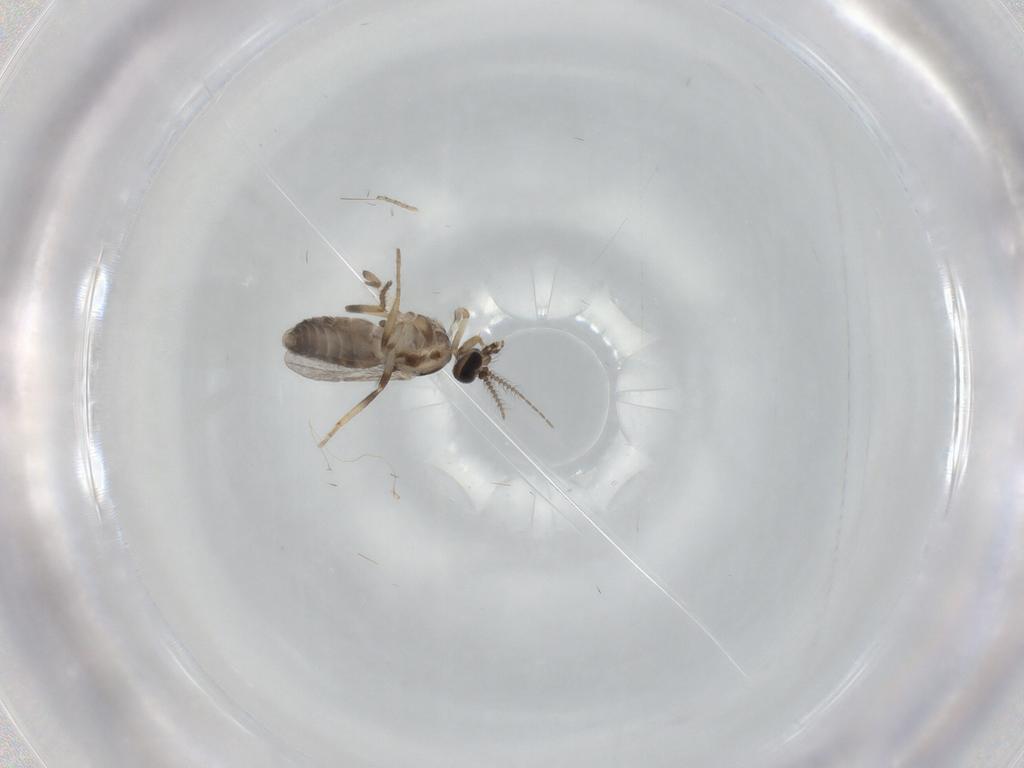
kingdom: Animalia
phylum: Arthropoda
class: Insecta
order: Diptera
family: Ceratopogonidae
